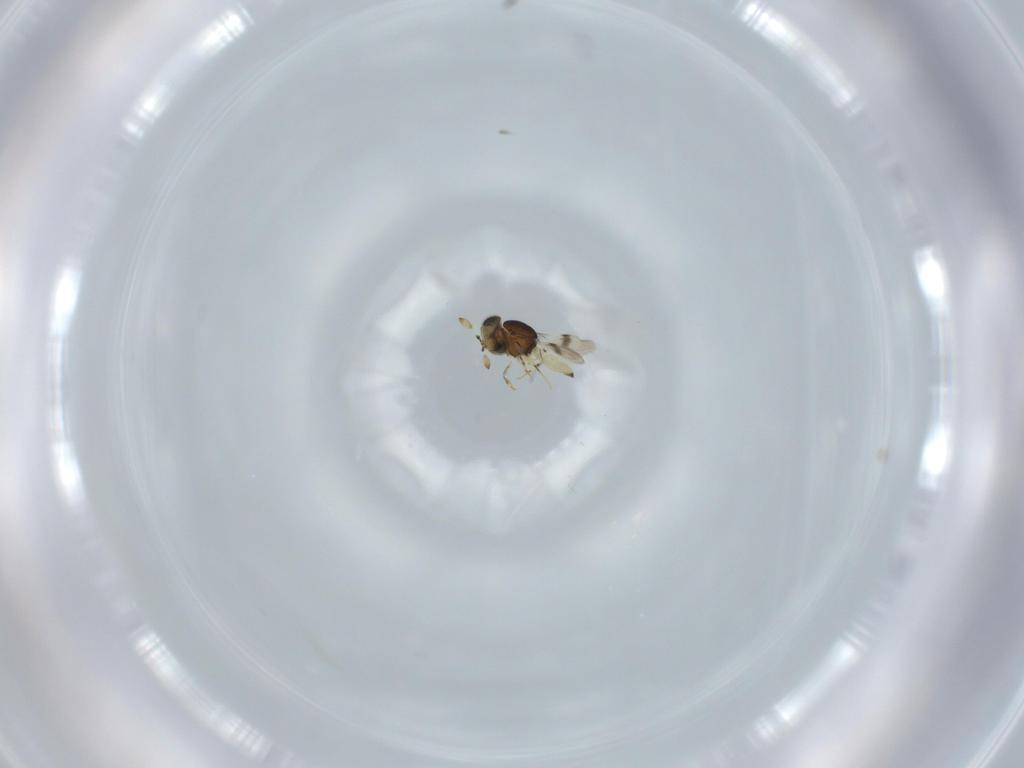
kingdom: Animalia
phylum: Arthropoda
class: Insecta
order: Hymenoptera
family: Scelionidae
